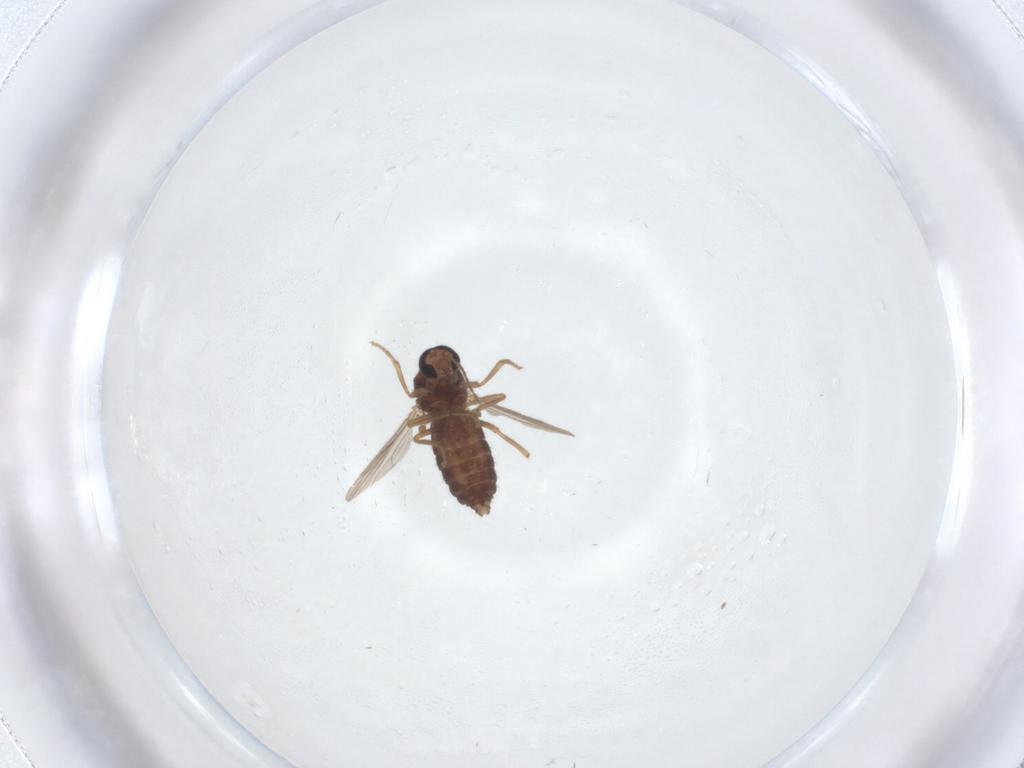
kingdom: Animalia
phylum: Arthropoda
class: Insecta
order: Diptera
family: Ceratopogonidae
